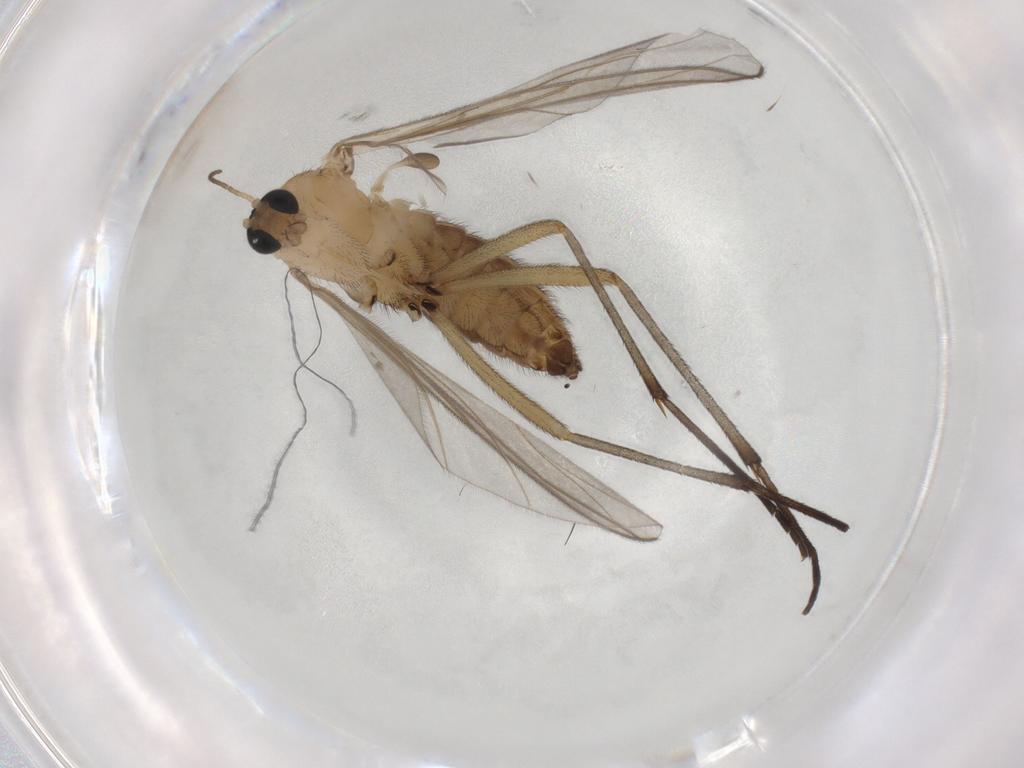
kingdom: Animalia
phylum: Arthropoda
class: Insecta
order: Diptera
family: Sciaridae
